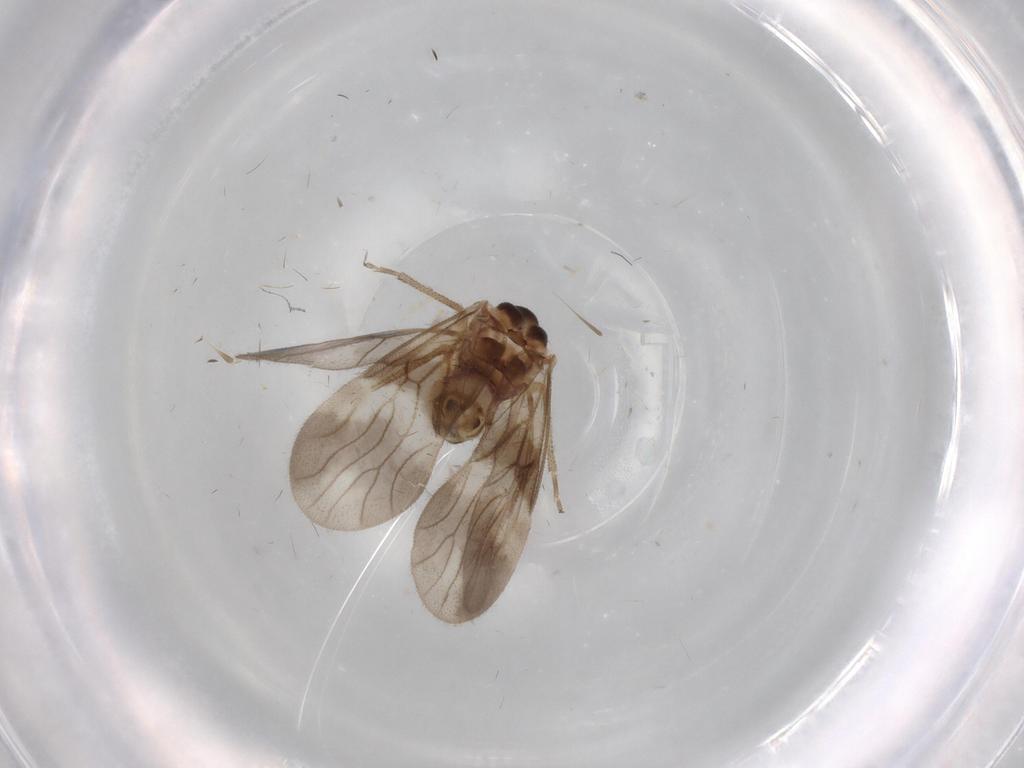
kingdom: Animalia
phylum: Arthropoda
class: Insecta
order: Psocodea
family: Amphipsocidae
